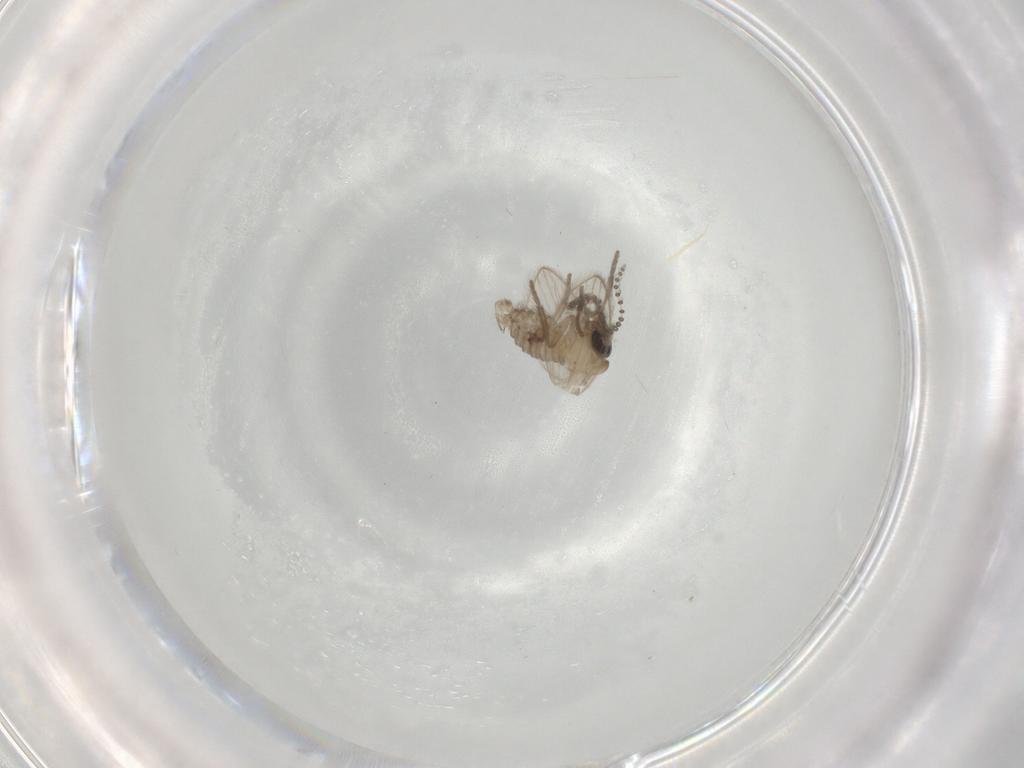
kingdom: Animalia
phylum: Arthropoda
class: Insecta
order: Diptera
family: Psychodidae
